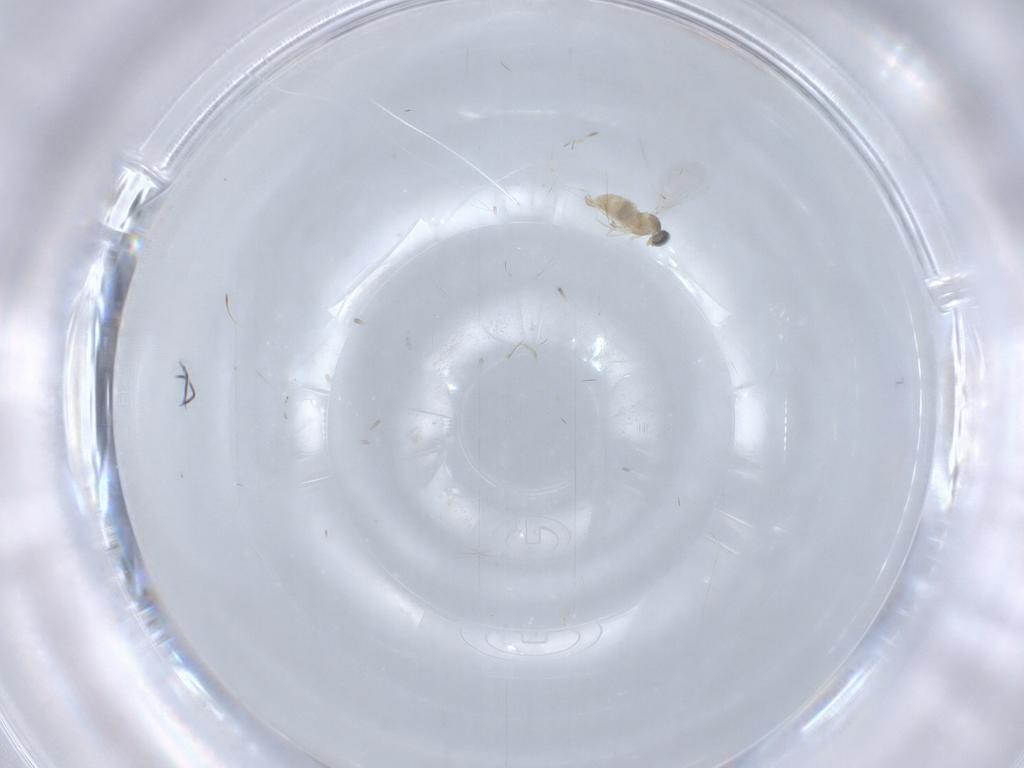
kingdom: Animalia
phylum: Arthropoda
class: Insecta
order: Diptera
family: Cecidomyiidae
